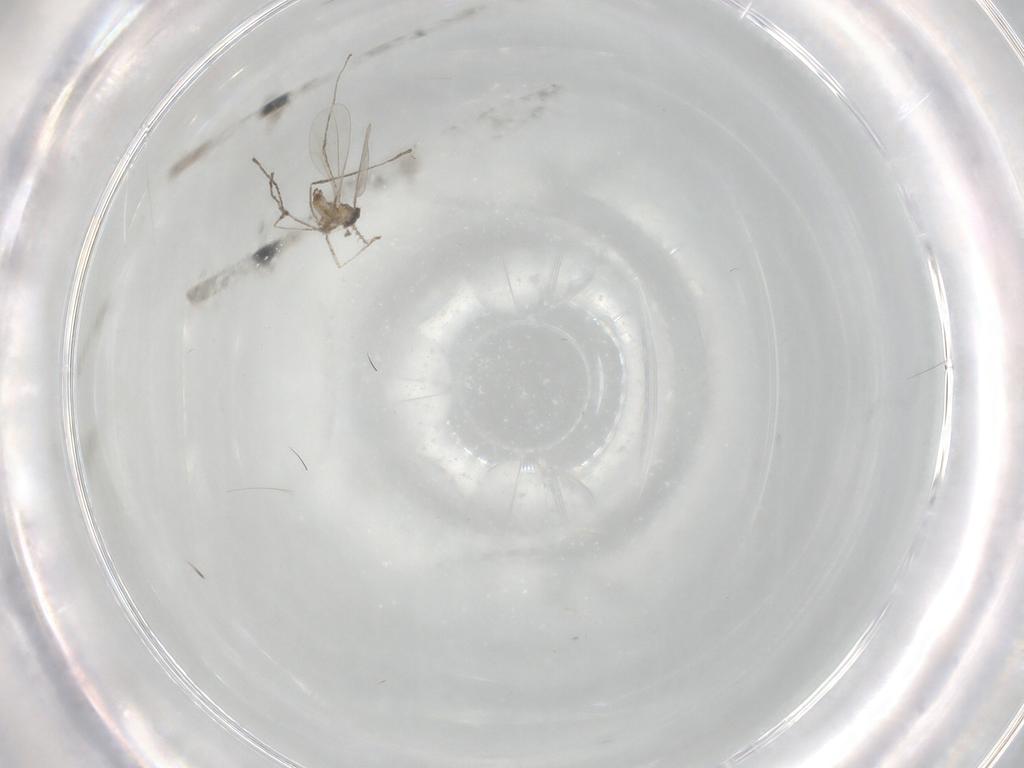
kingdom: Animalia
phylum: Arthropoda
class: Insecta
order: Diptera
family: Cecidomyiidae
